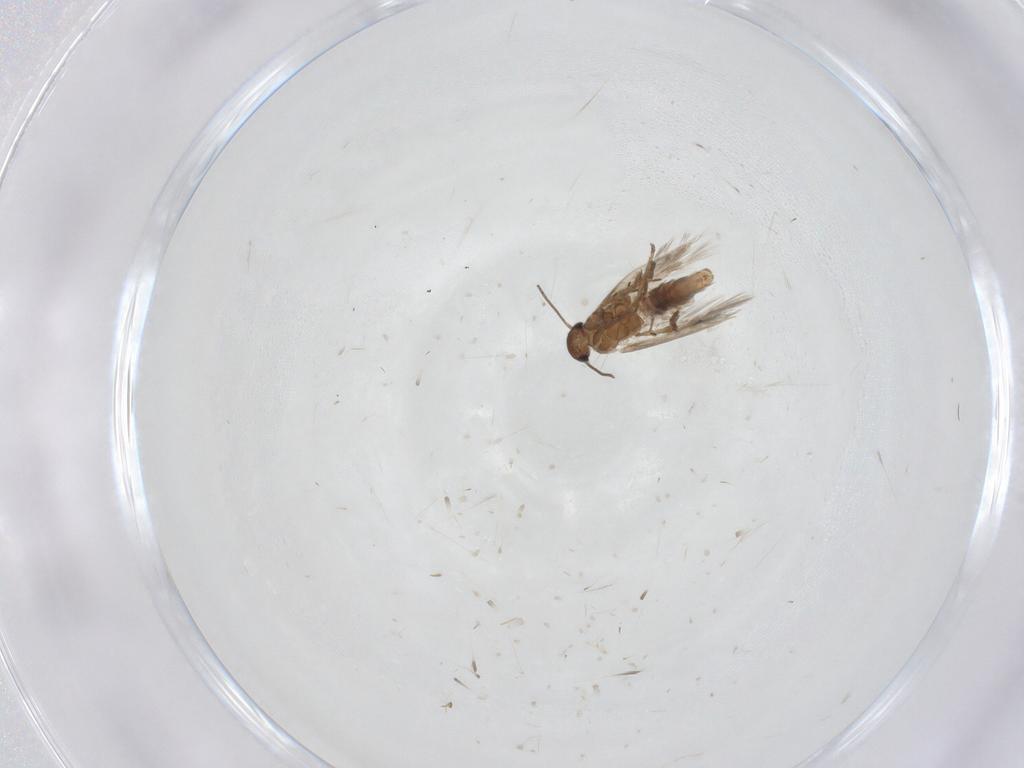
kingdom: Animalia
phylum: Arthropoda
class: Insecta
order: Lepidoptera
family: Heliozelidae
